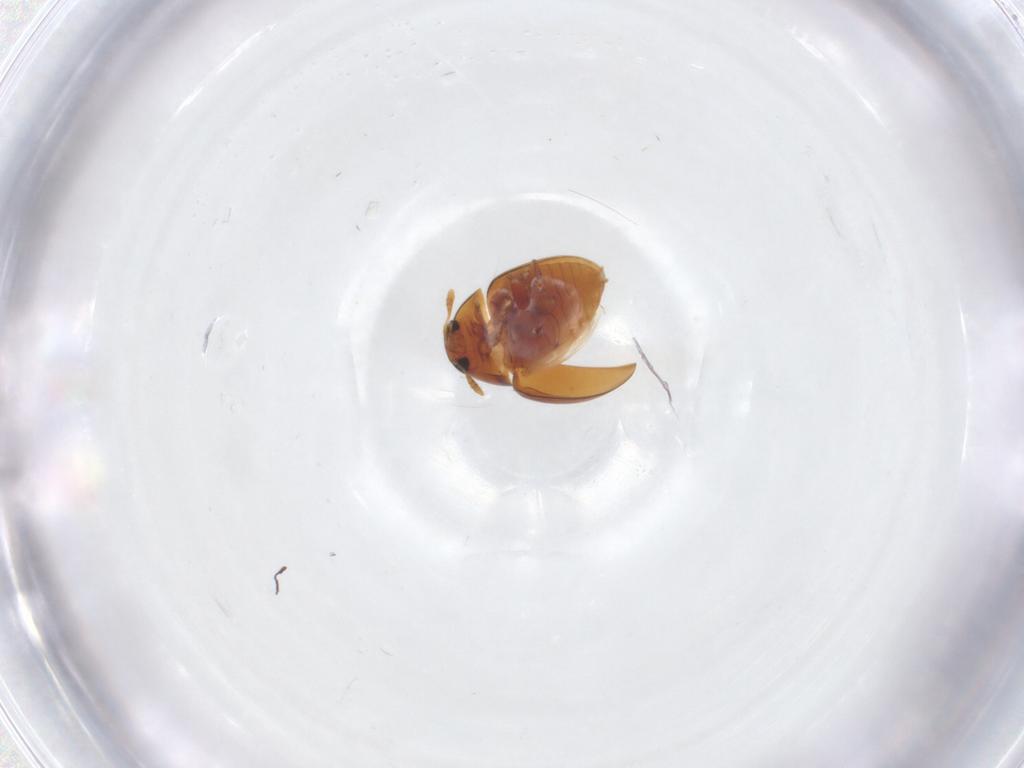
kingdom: Animalia
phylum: Arthropoda
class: Insecta
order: Coleoptera
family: Phalacridae
